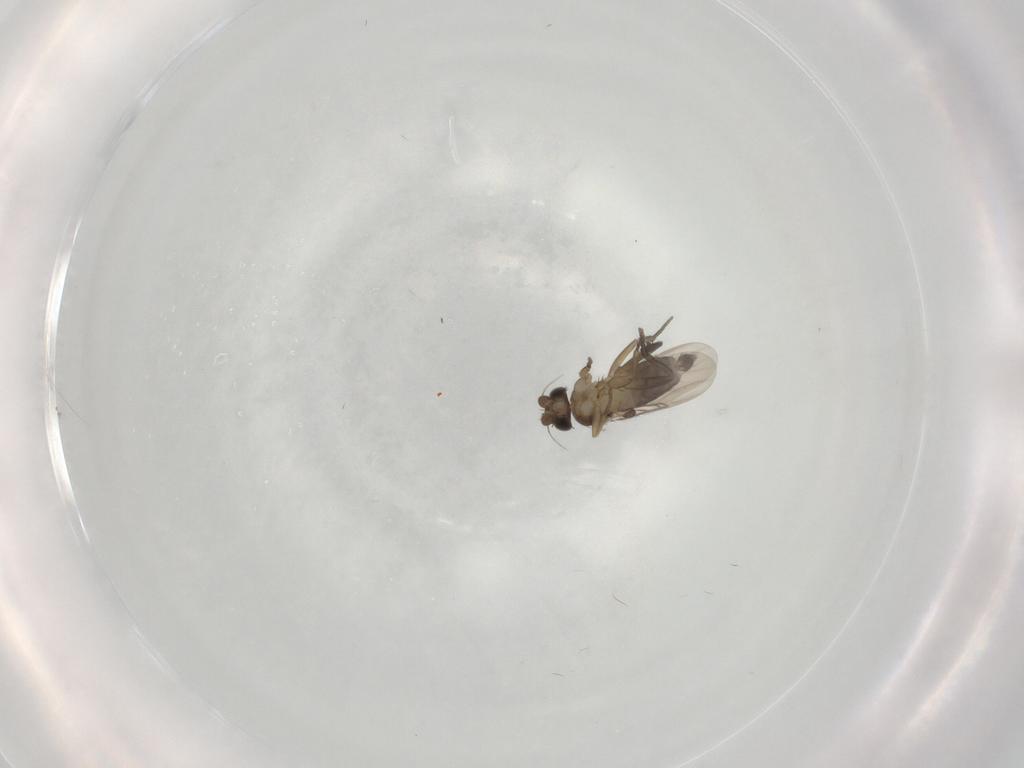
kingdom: Animalia
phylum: Arthropoda
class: Insecta
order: Diptera
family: Phoridae
